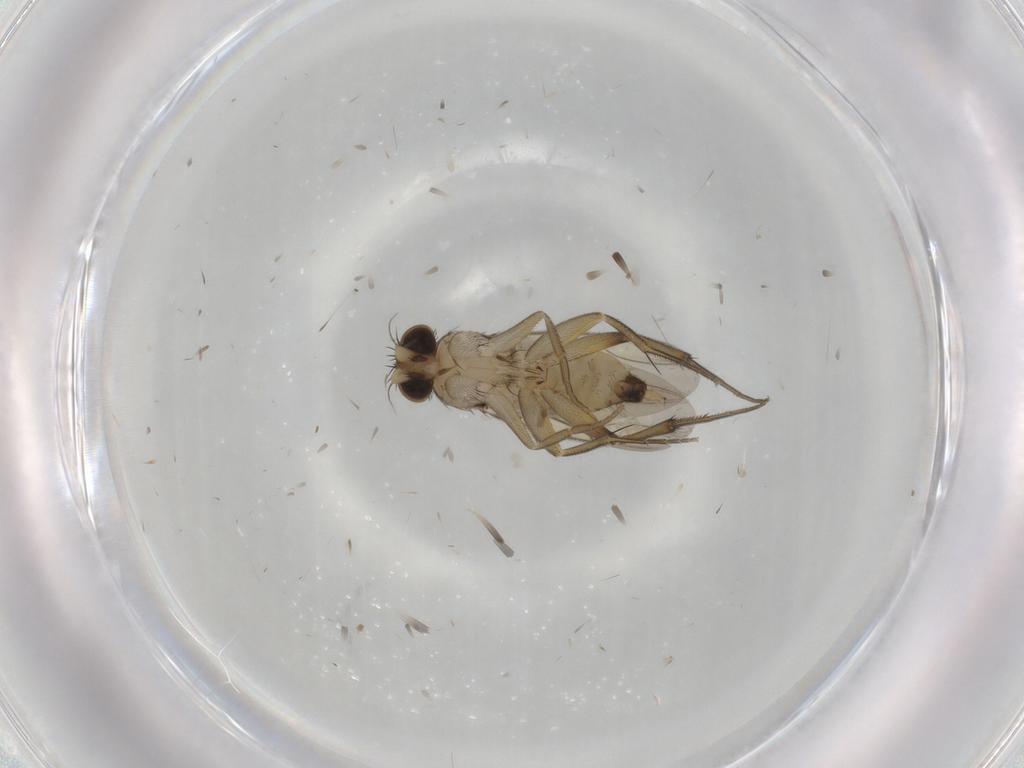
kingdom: Animalia
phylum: Arthropoda
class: Insecta
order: Diptera
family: Phoridae
